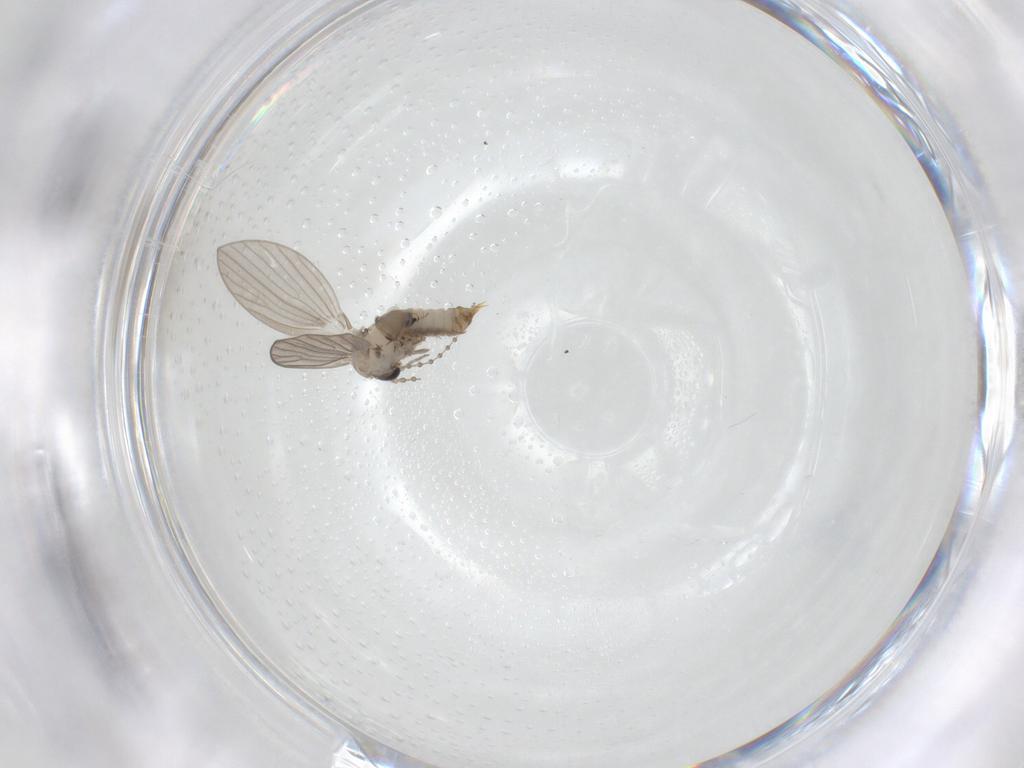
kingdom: Animalia
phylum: Arthropoda
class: Insecta
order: Diptera
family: Psychodidae
